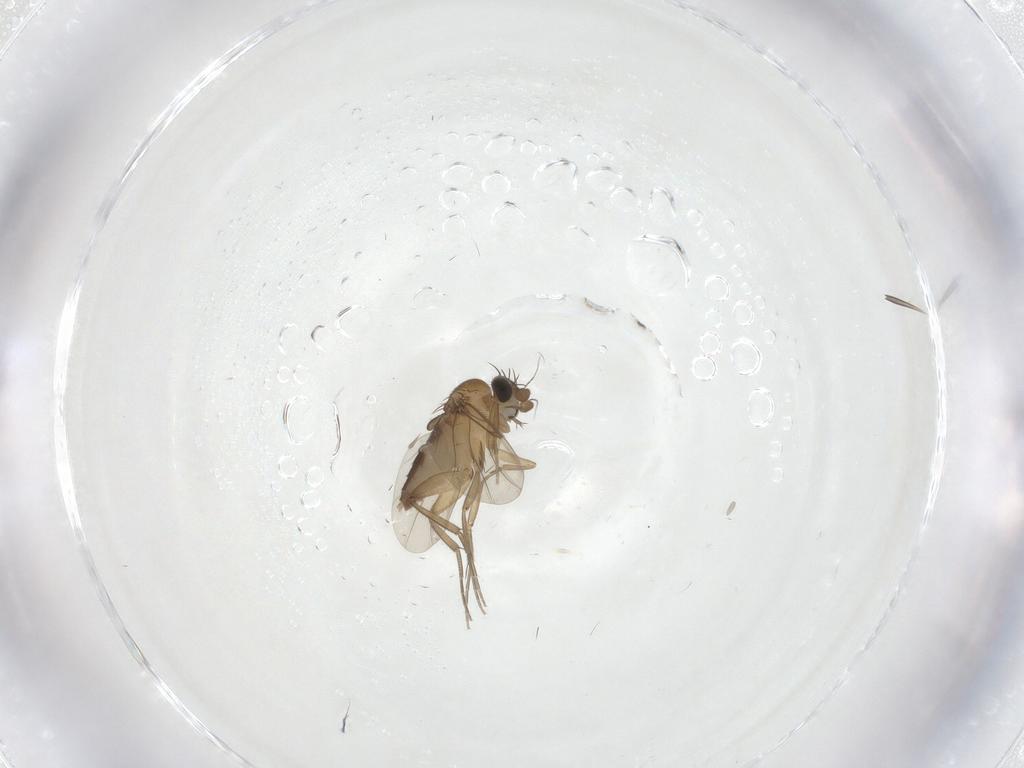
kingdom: Animalia
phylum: Arthropoda
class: Insecta
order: Diptera
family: Phoridae
